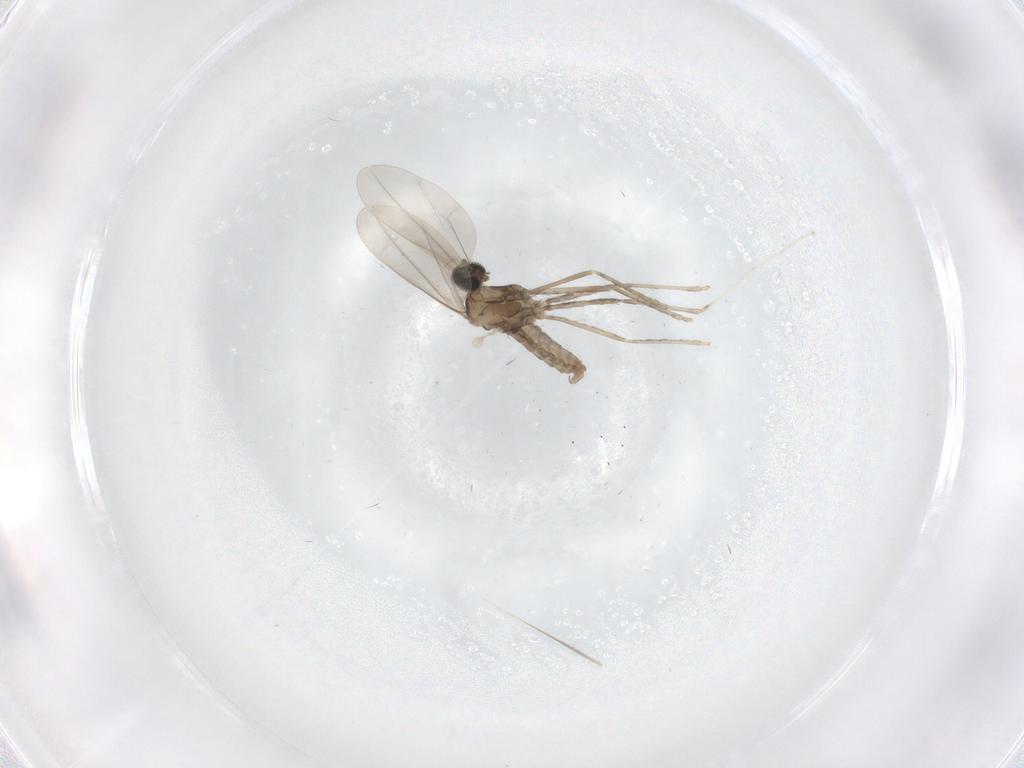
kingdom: Animalia
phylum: Arthropoda
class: Insecta
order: Diptera
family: Cecidomyiidae
